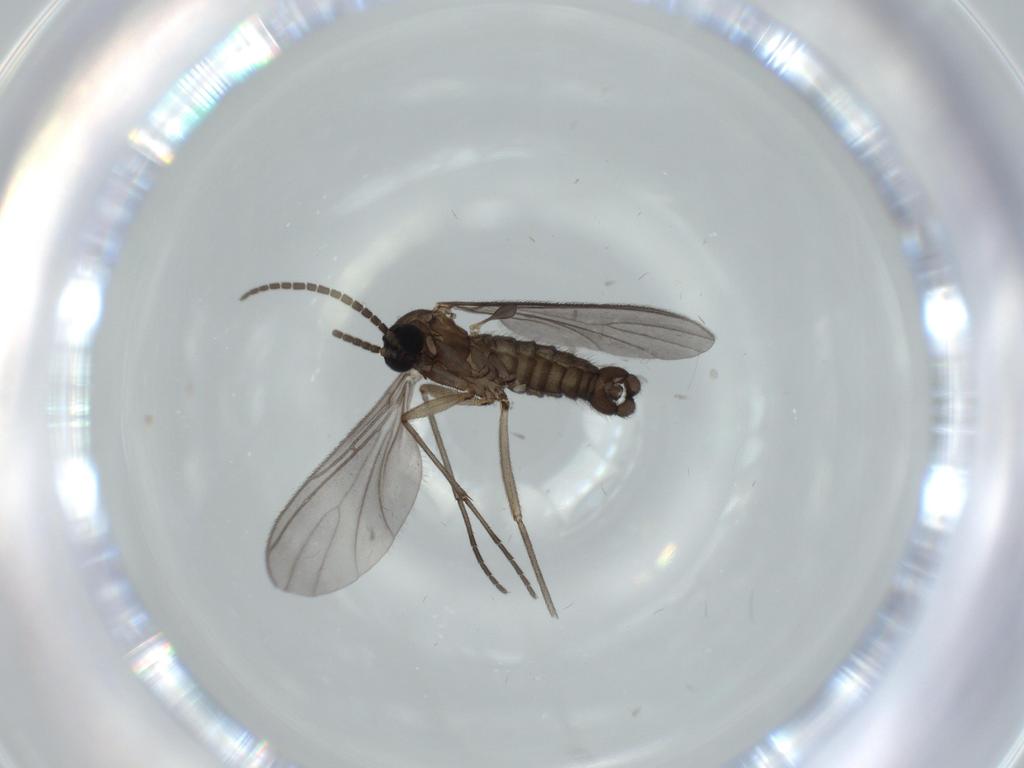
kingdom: Animalia
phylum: Arthropoda
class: Insecta
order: Diptera
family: Sciaridae
